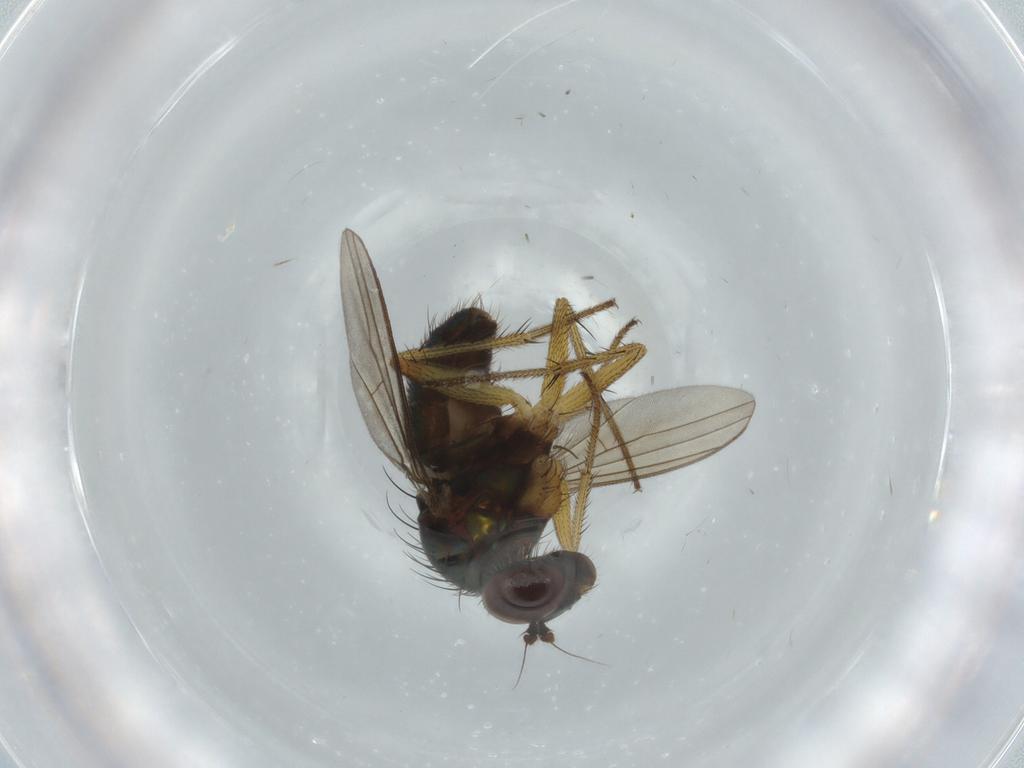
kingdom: Animalia
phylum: Arthropoda
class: Insecta
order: Diptera
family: Dolichopodidae
